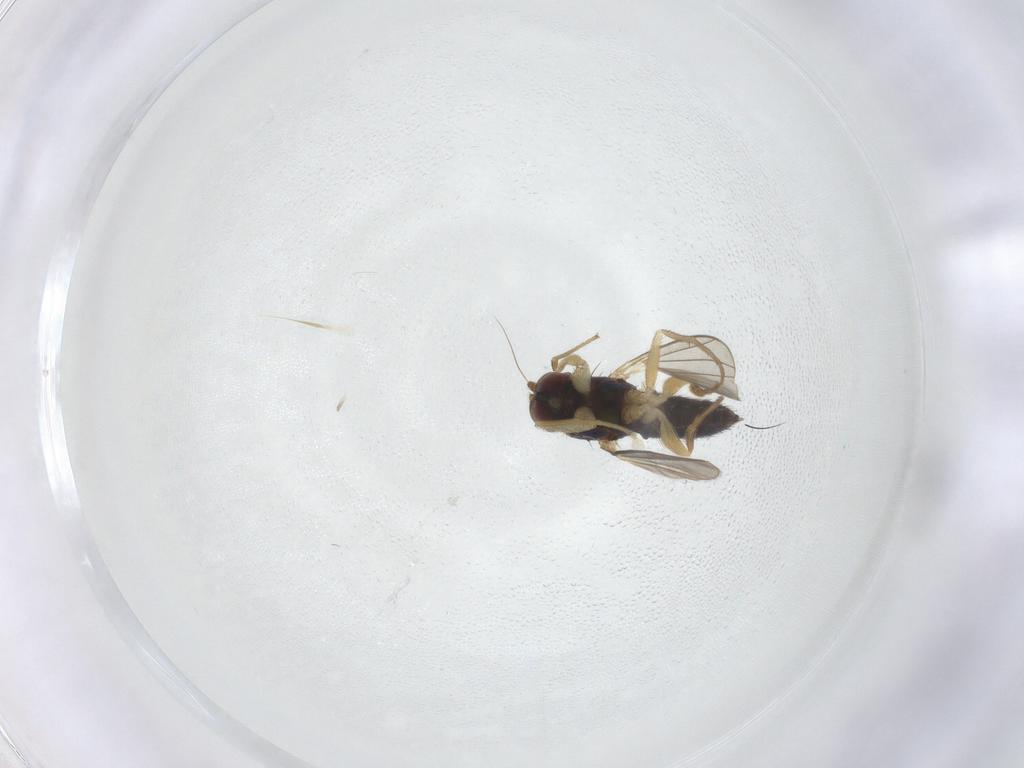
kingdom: Animalia
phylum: Arthropoda
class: Insecta
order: Diptera
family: Dolichopodidae
